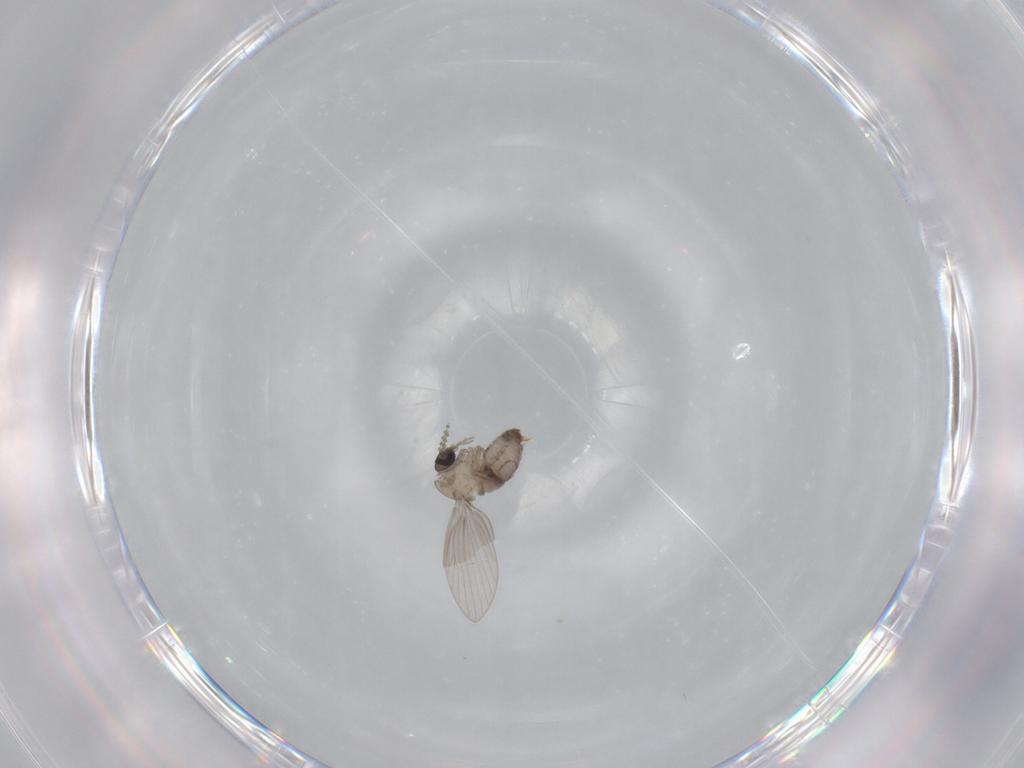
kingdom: Animalia
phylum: Arthropoda
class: Insecta
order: Diptera
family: Psychodidae
